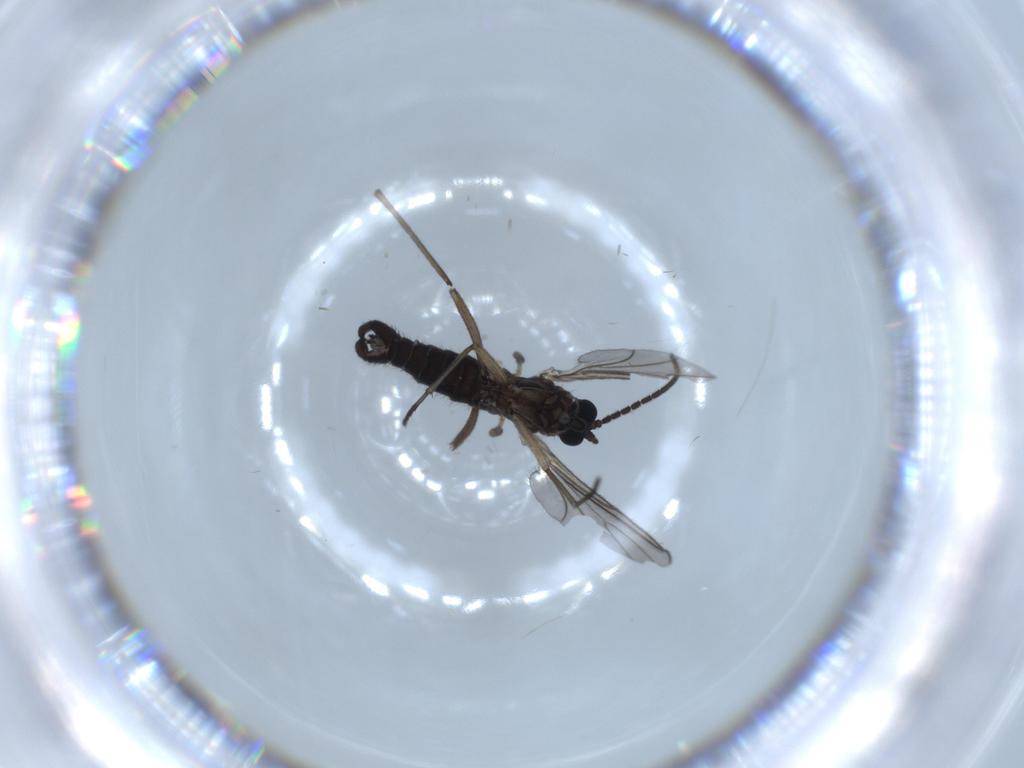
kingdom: Animalia
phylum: Arthropoda
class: Insecta
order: Diptera
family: Sciaridae
